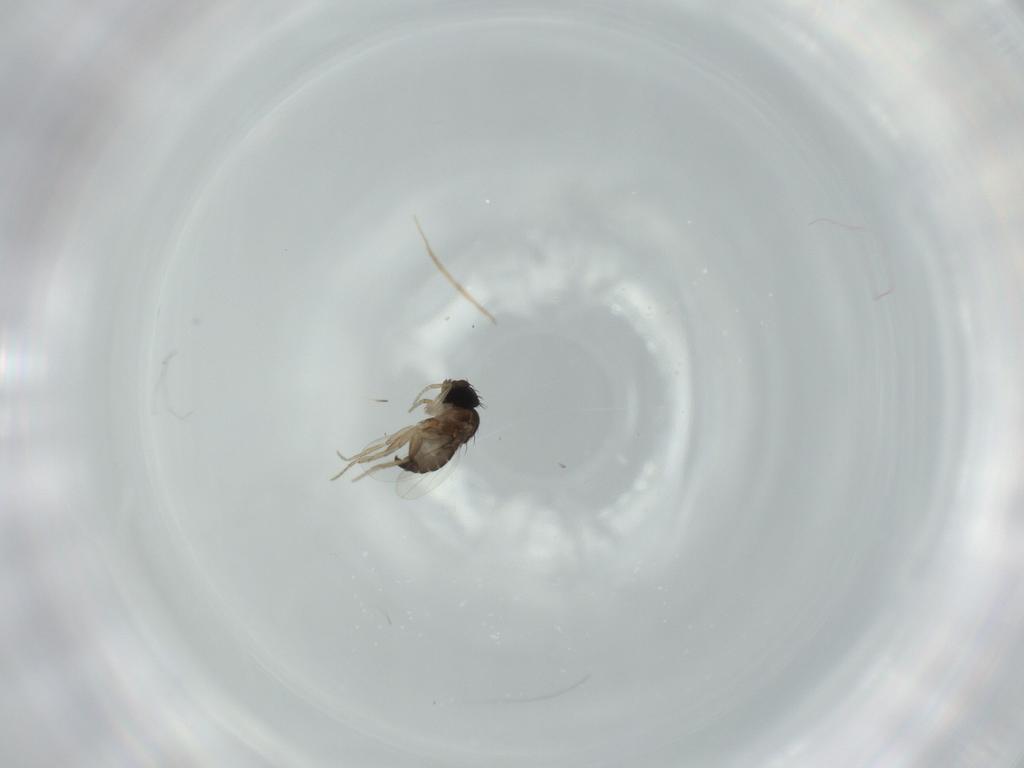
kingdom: Animalia
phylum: Arthropoda
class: Insecta
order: Diptera
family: Phoridae
